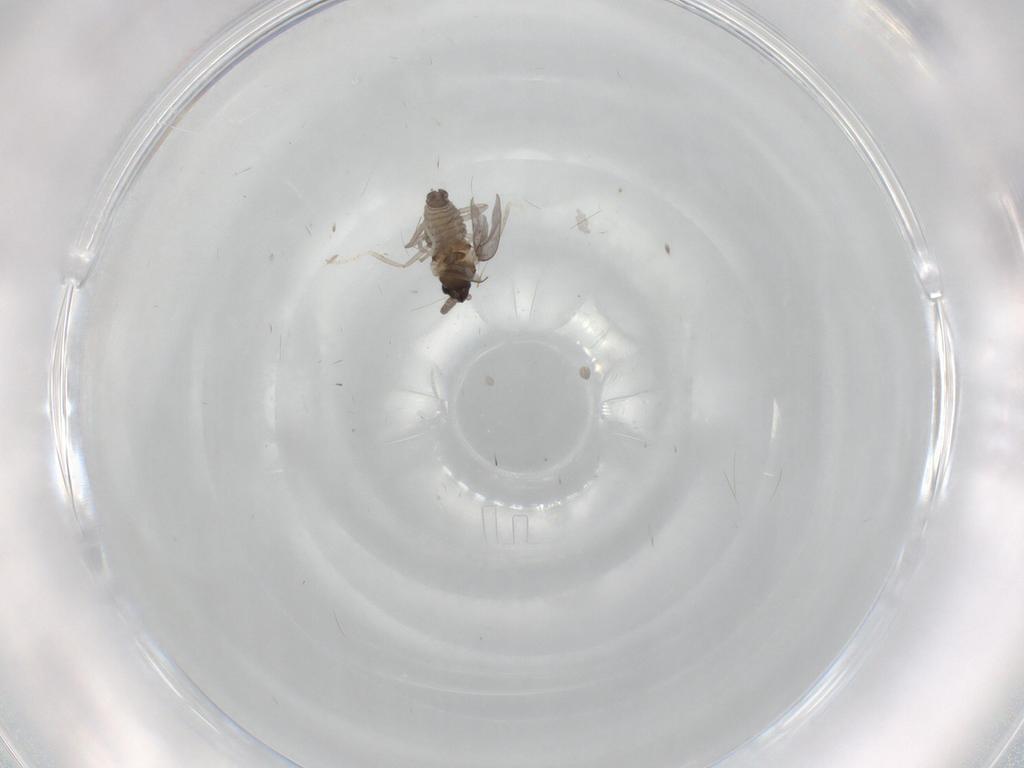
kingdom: Animalia
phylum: Arthropoda
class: Insecta
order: Diptera
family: Cecidomyiidae
